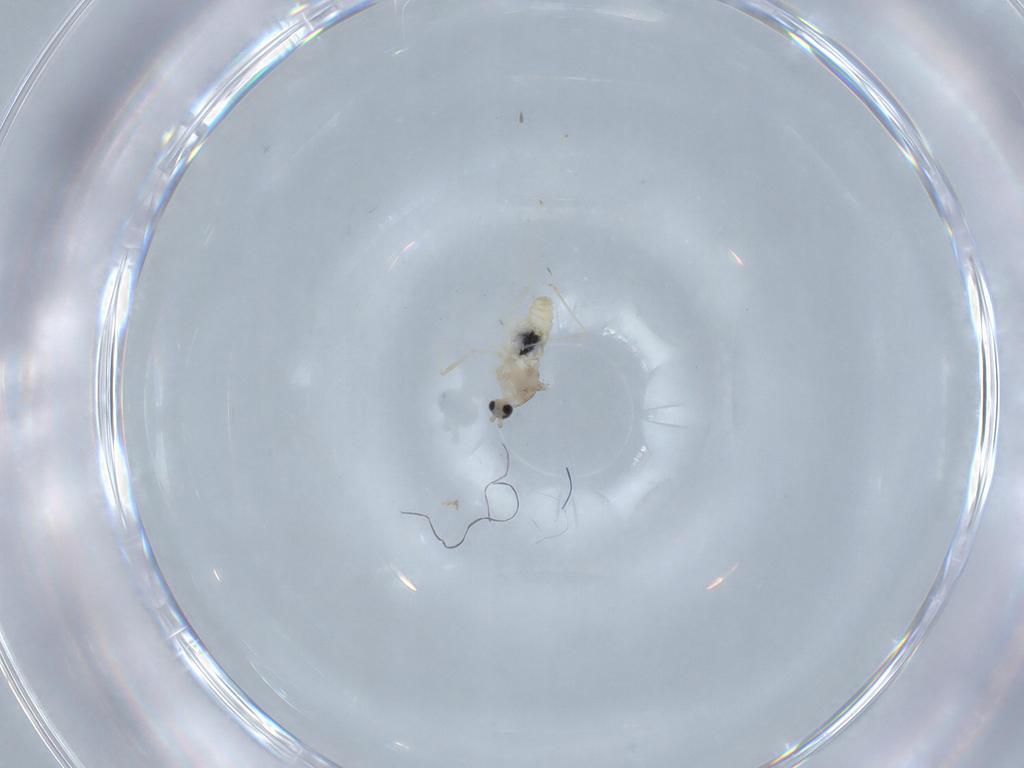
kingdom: Animalia
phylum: Arthropoda
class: Insecta
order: Diptera
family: Cecidomyiidae
